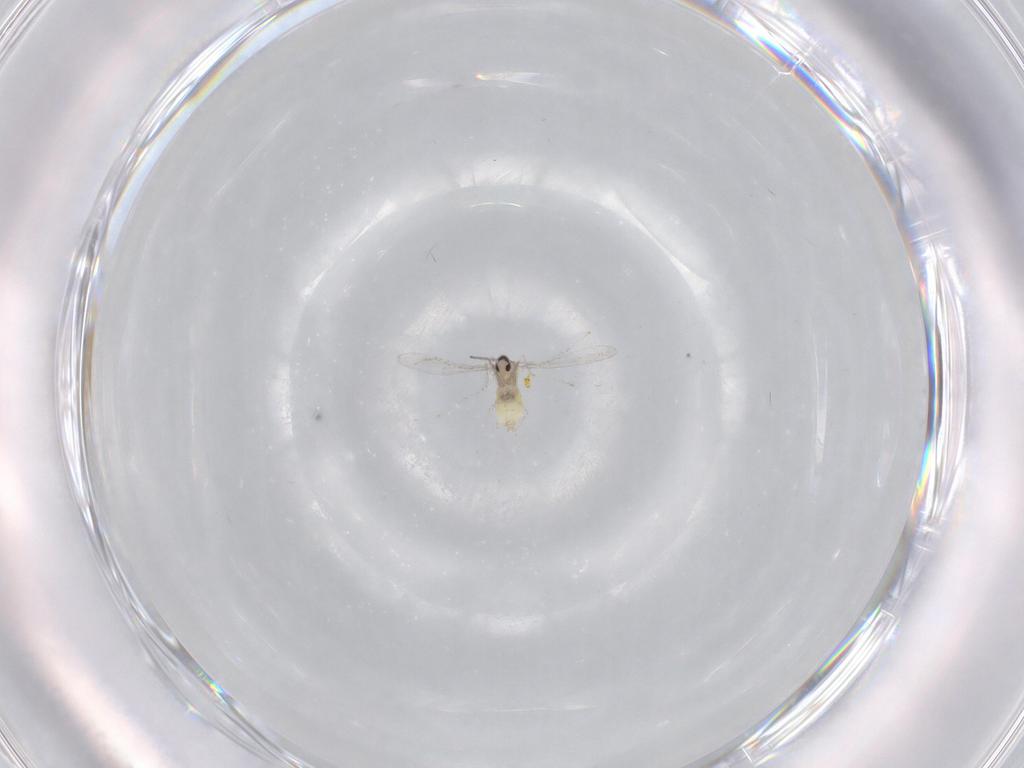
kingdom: Animalia
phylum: Arthropoda
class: Insecta
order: Diptera
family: Cecidomyiidae
